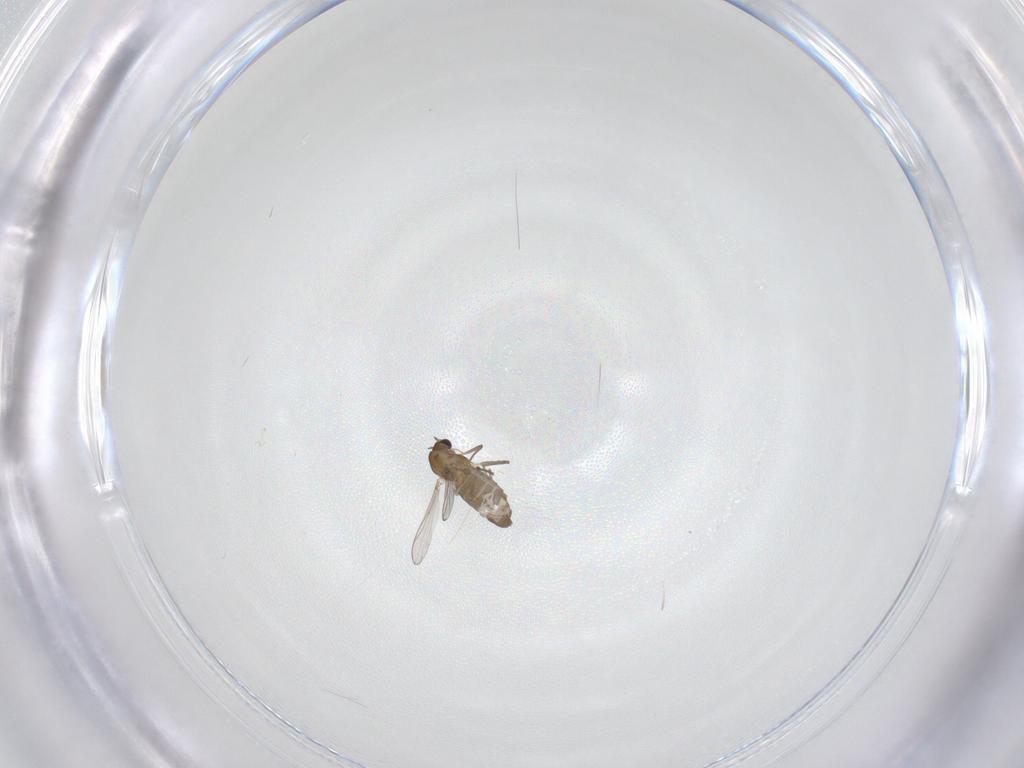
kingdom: Animalia
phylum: Arthropoda
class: Insecta
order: Diptera
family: Chironomidae
